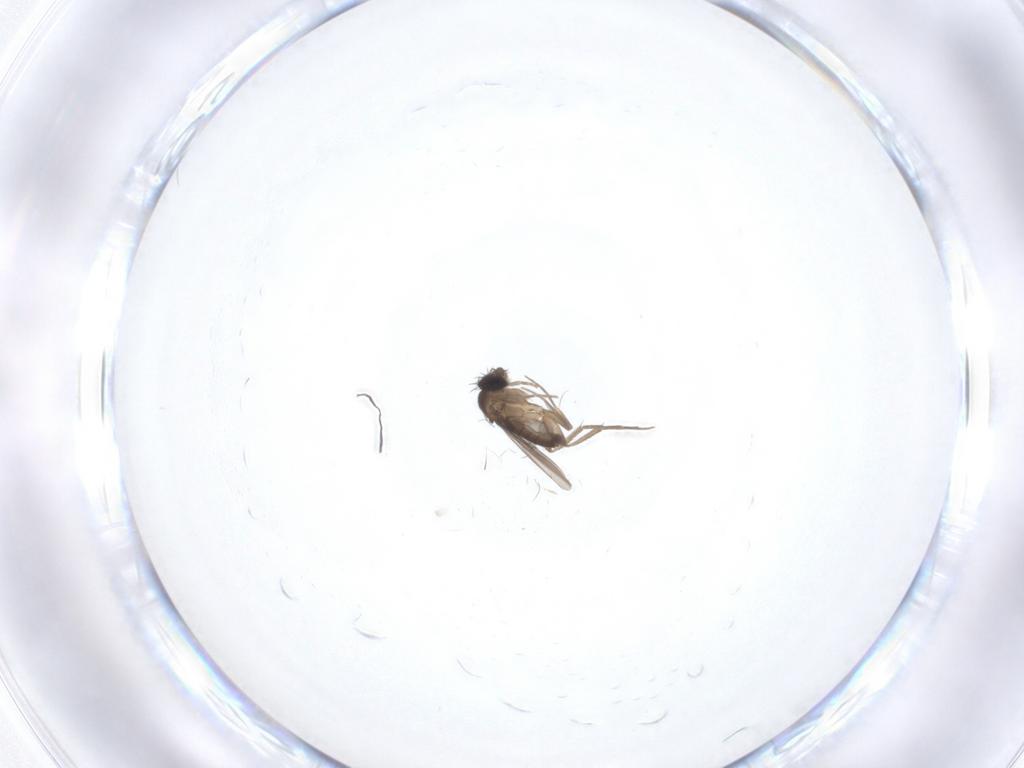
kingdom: Animalia
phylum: Arthropoda
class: Insecta
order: Diptera
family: Phoridae
